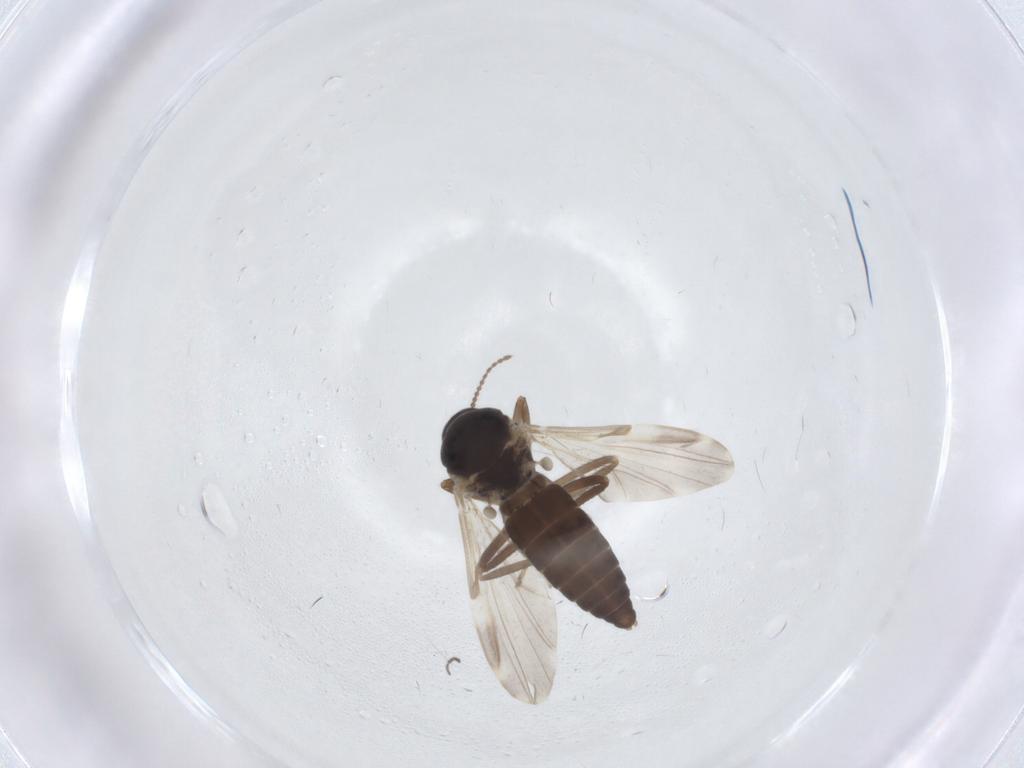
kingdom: Animalia
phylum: Arthropoda
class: Insecta
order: Diptera
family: Ceratopogonidae
